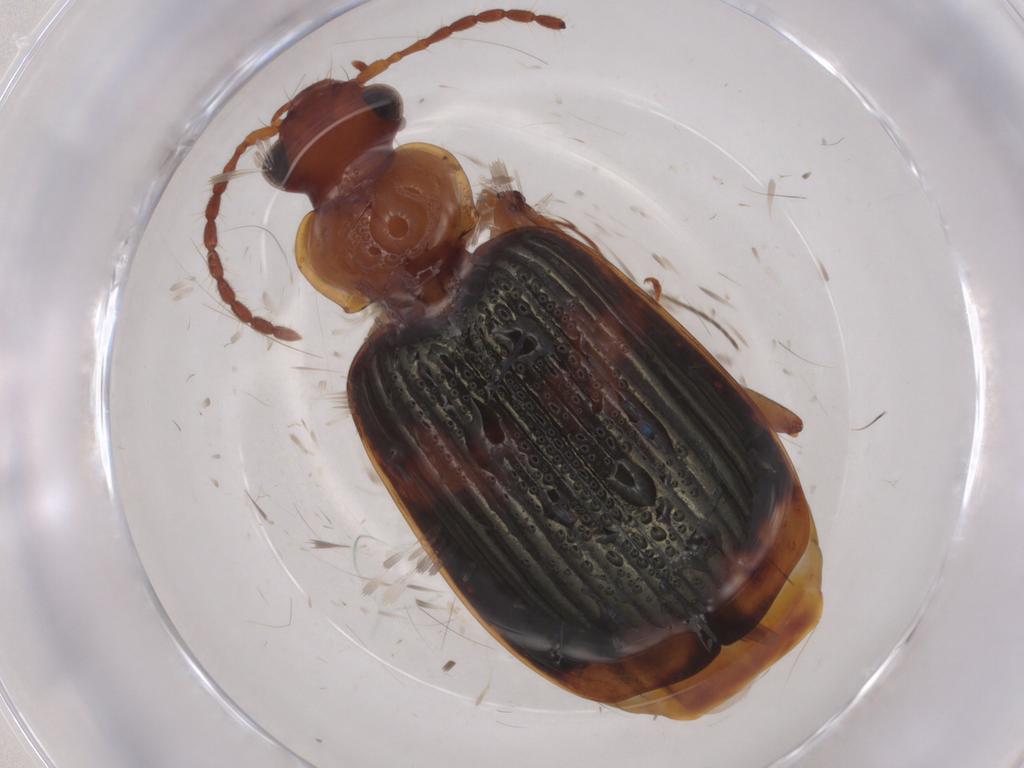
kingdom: Animalia
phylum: Arthropoda
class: Insecta
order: Coleoptera
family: Carabidae
